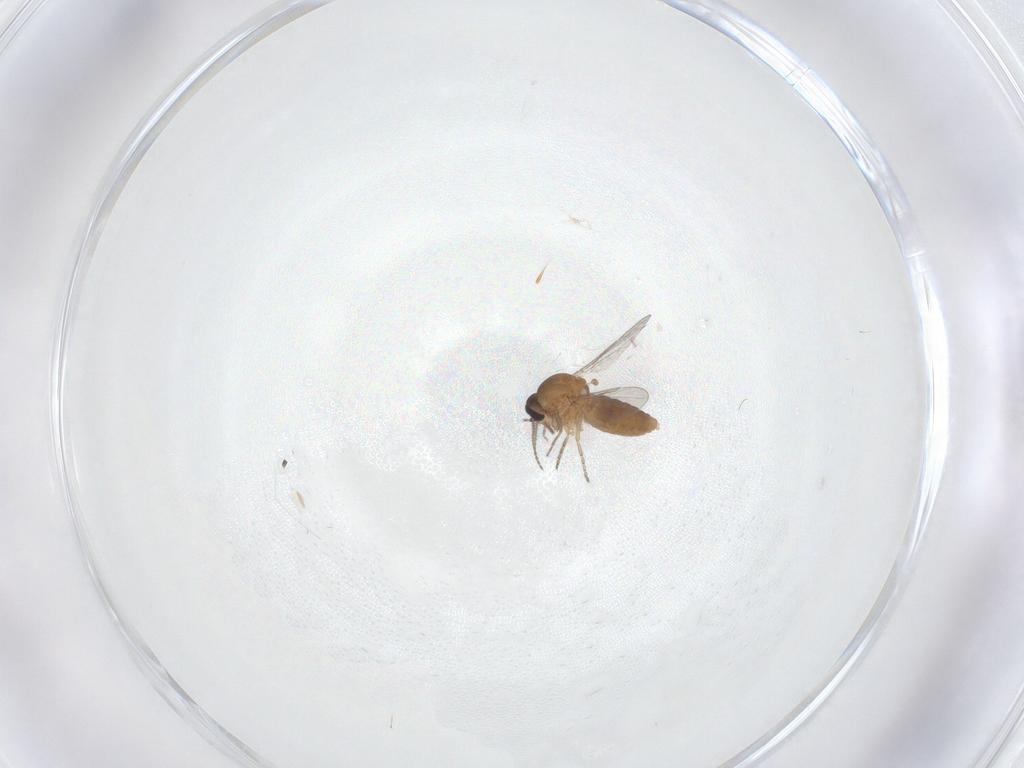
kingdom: Animalia
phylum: Arthropoda
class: Insecta
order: Diptera
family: Ceratopogonidae
